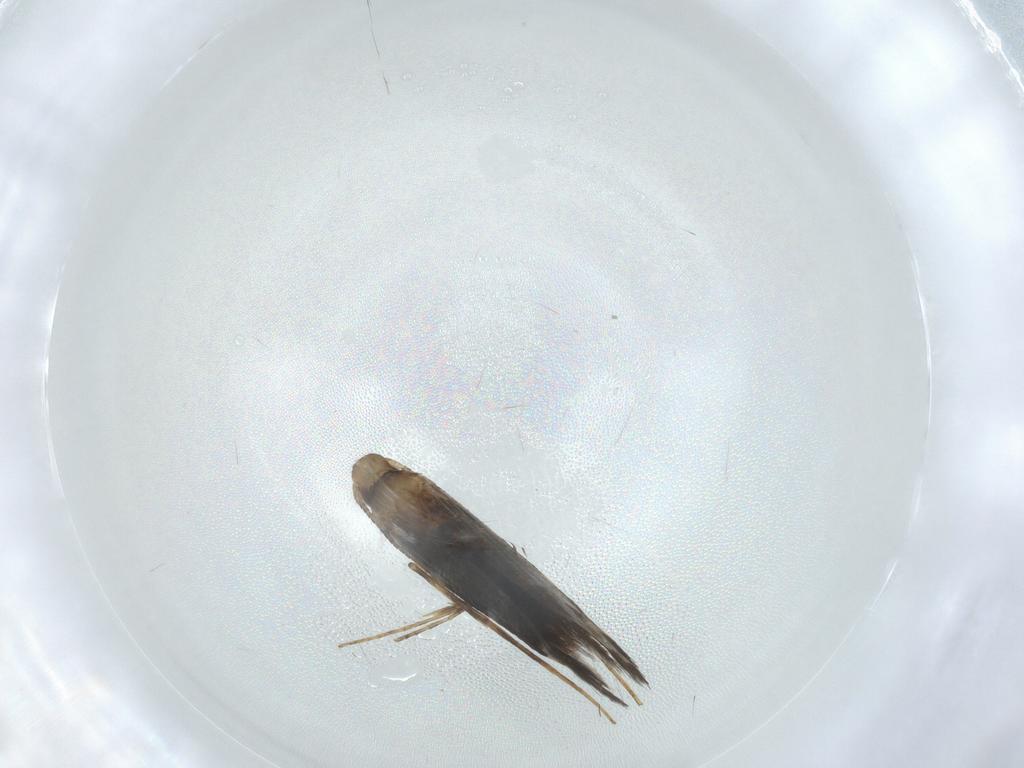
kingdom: Animalia
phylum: Arthropoda
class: Insecta
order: Lepidoptera
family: Gracillariidae
